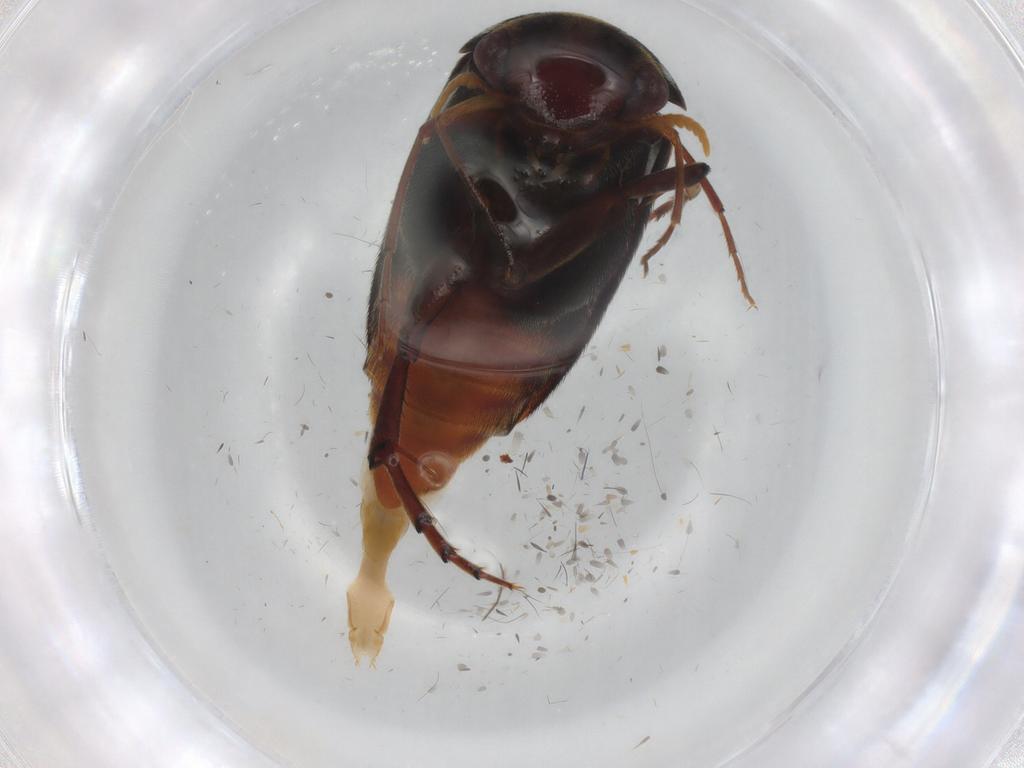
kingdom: Animalia
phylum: Arthropoda
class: Insecta
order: Coleoptera
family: Mordellidae
